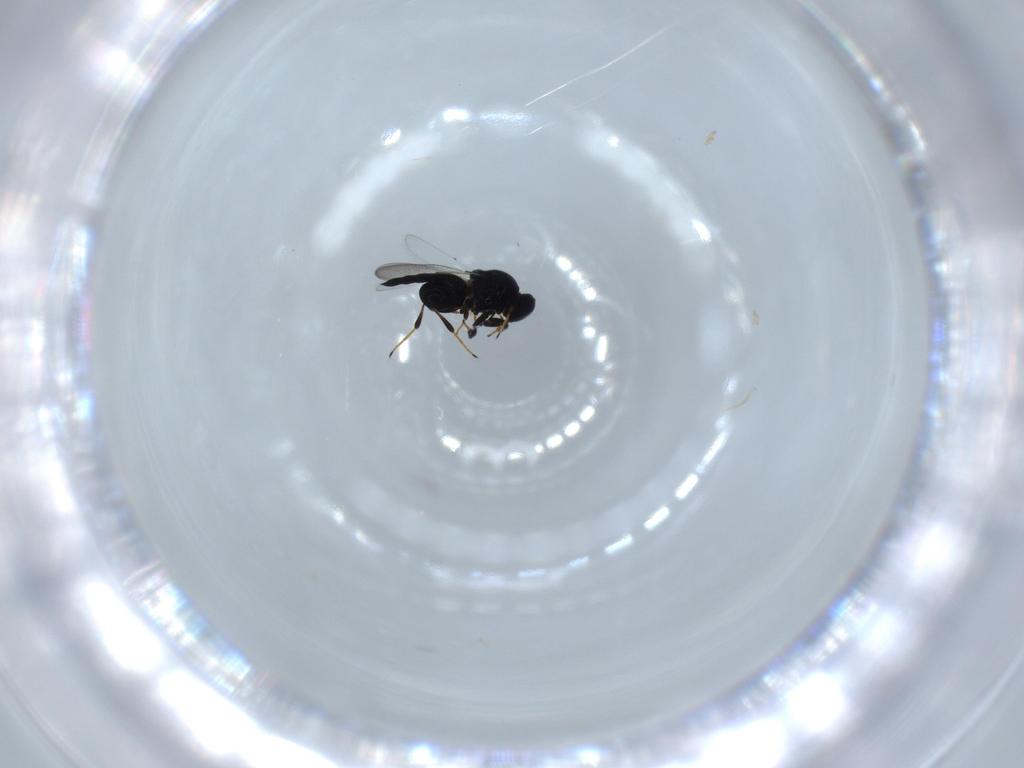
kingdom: Animalia
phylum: Arthropoda
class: Insecta
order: Hymenoptera
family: Platygastridae
